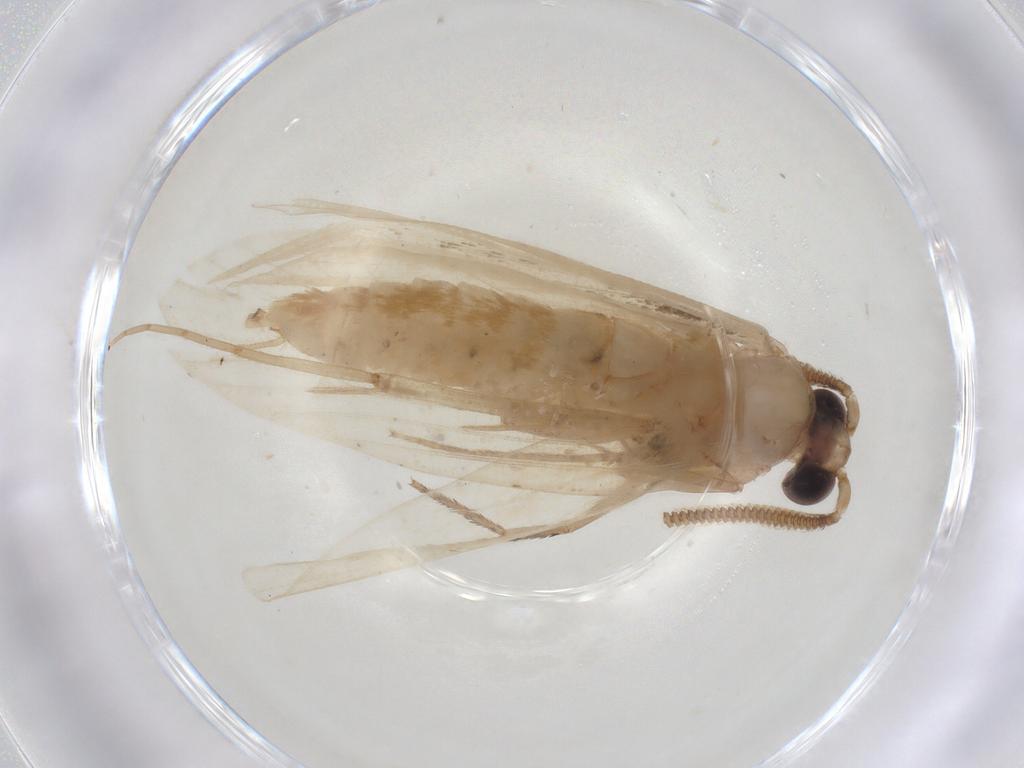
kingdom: Animalia
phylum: Arthropoda
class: Insecta
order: Lepidoptera
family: Tineidae
